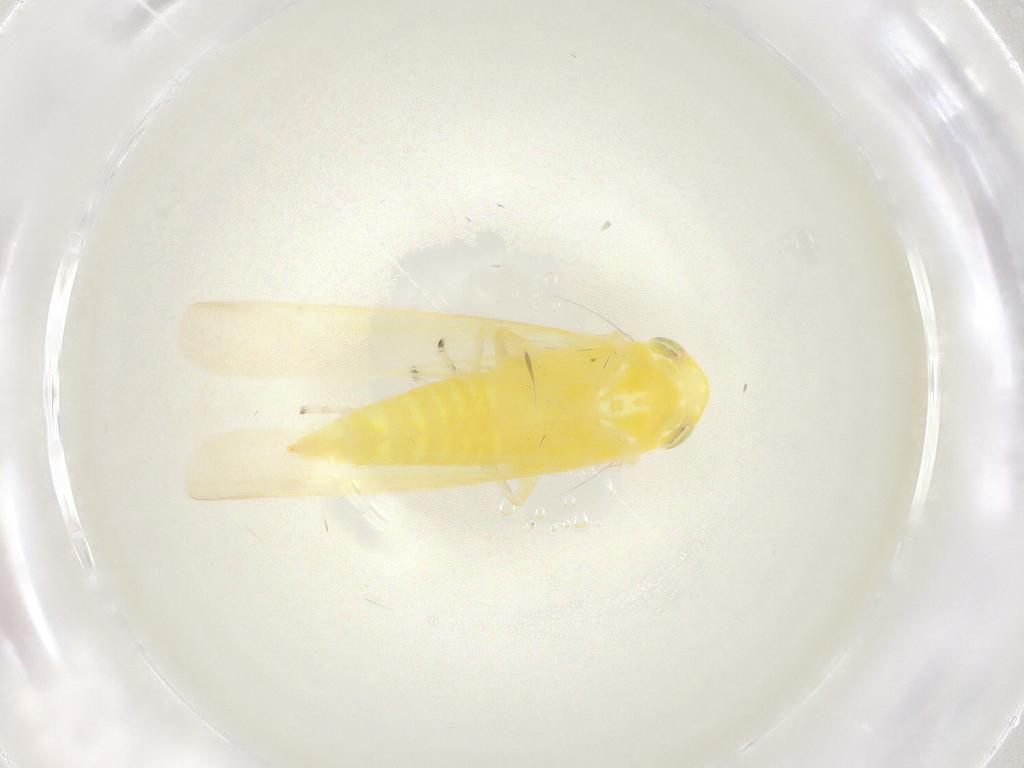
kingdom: Animalia
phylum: Arthropoda
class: Insecta
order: Hemiptera
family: Cicadellidae
